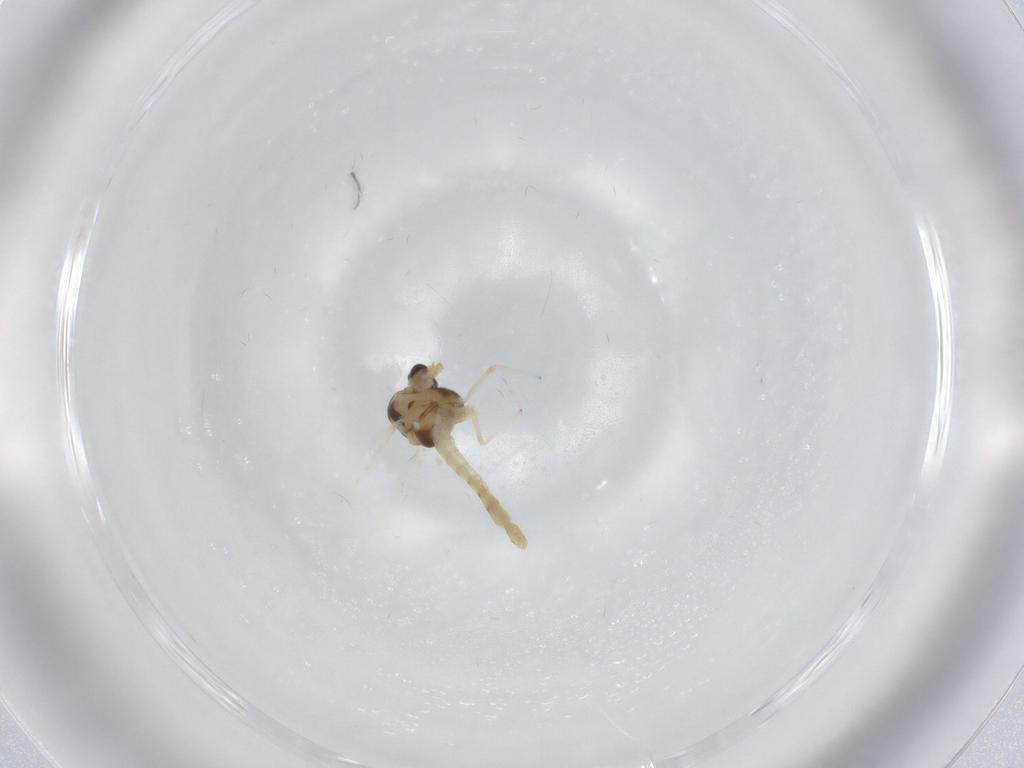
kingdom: Animalia
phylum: Arthropoda
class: Insecta
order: Diptera
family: Chironomidae
